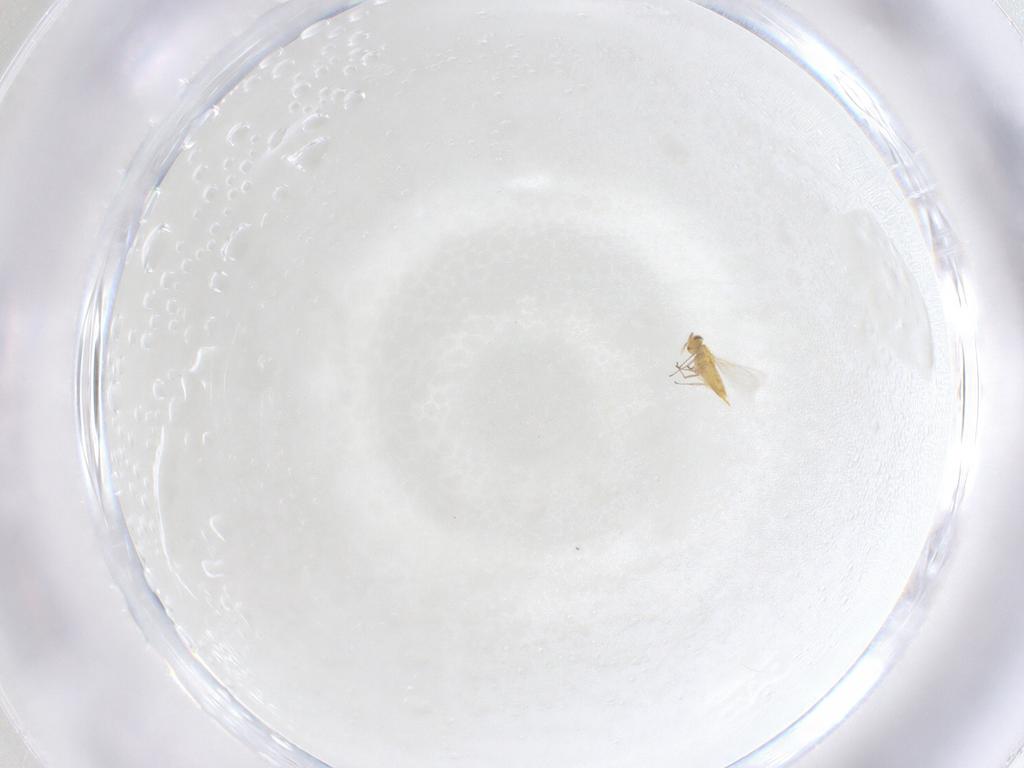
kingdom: Animalia
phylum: Arthropoda
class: Insecta
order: Hymenoptera
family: Aphelinidae
